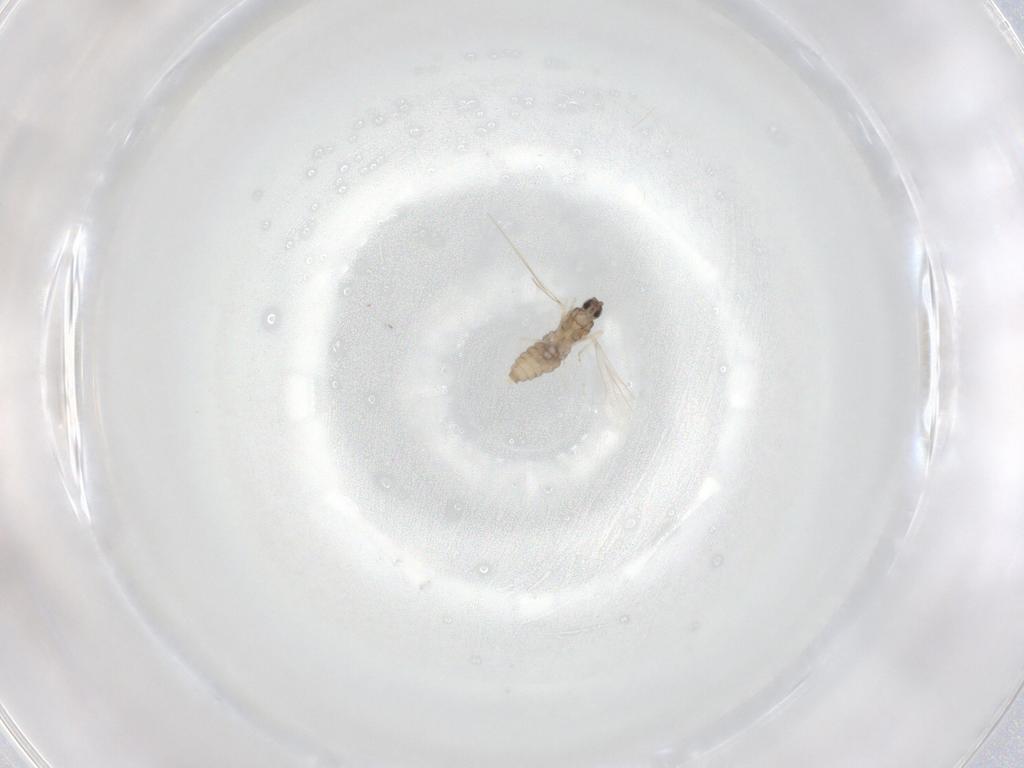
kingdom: Animalia
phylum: Arthropoda
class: Insecta
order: Diptera
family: Cecidomyiidae
